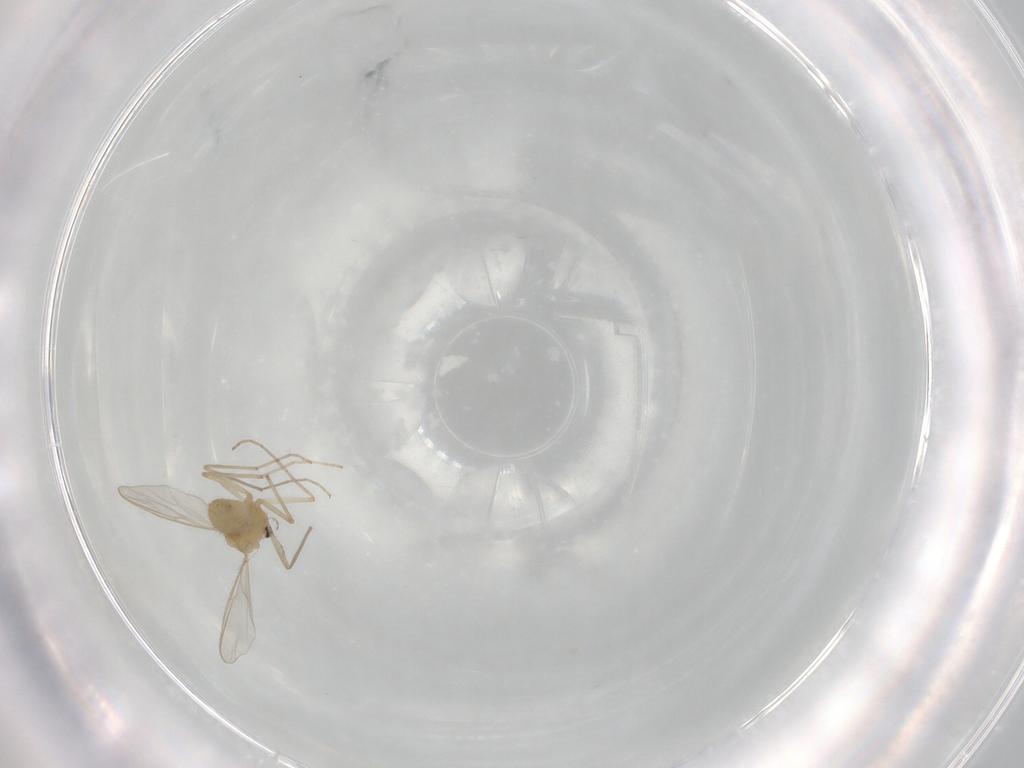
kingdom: Animalia
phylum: Arthropoda
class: Insecta
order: Diptera
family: Chironomidae
